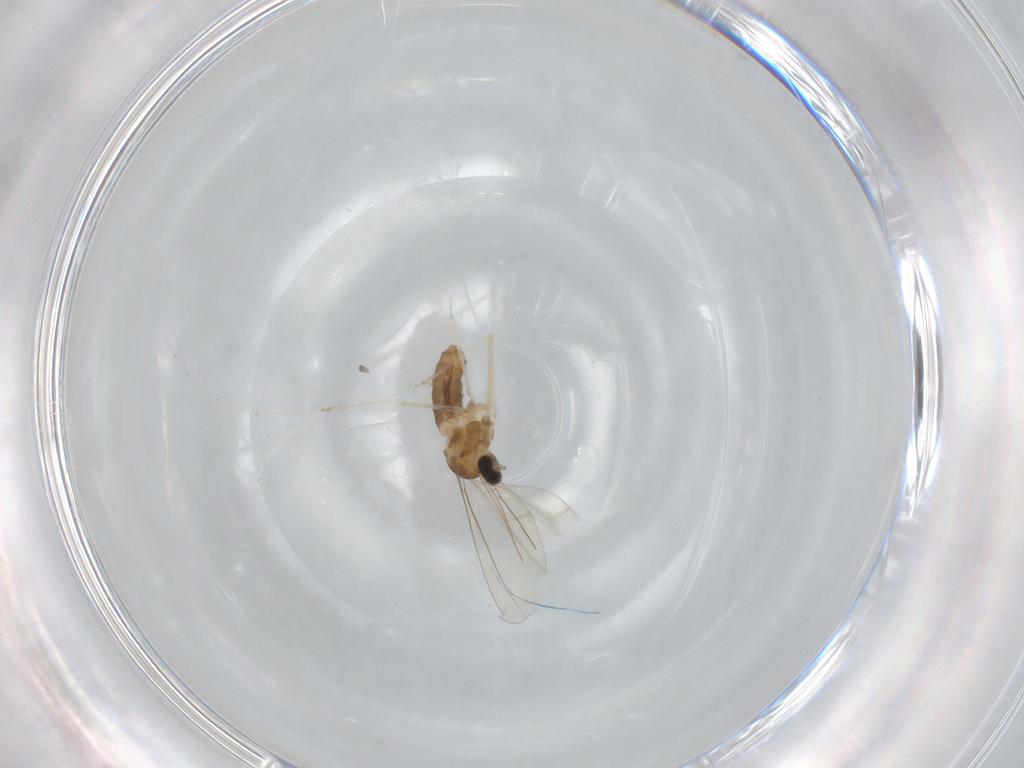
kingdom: Animalia
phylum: Arthropoda
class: Insecta
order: Diptera
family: Cecidomyiidae
